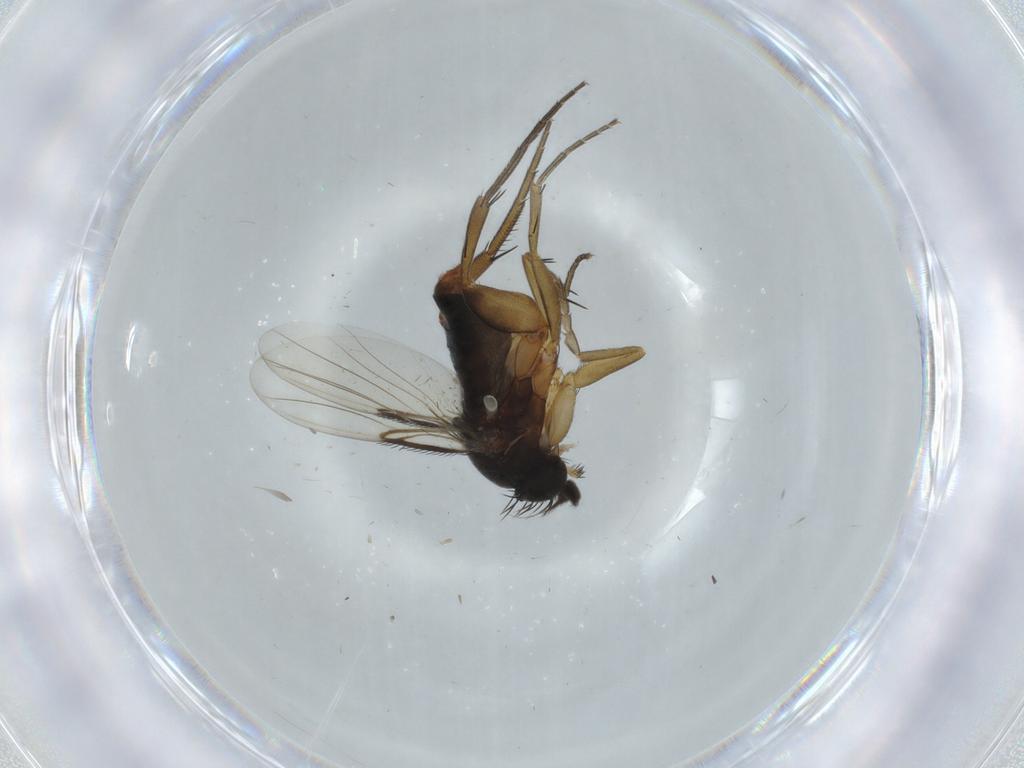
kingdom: Animalia
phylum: Arthropoda
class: Insecta
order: Diptera
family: Phoridae
